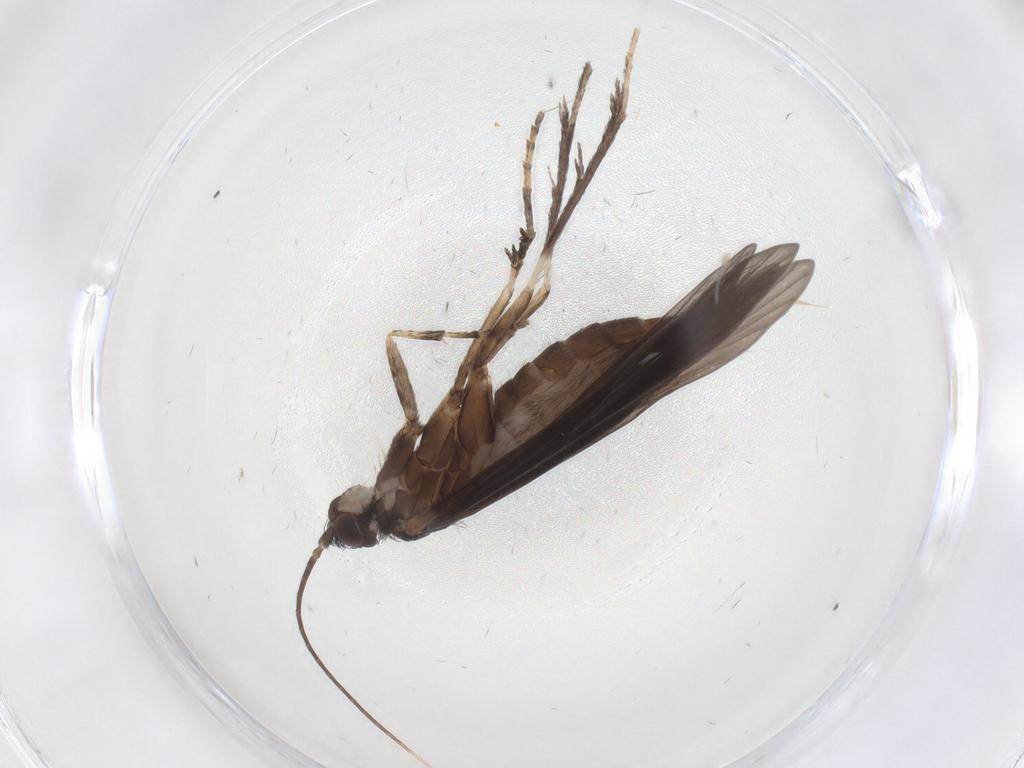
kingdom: Animalia
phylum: Arthropoda
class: Insecta
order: Trichoptera
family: Xiphocentronidae
